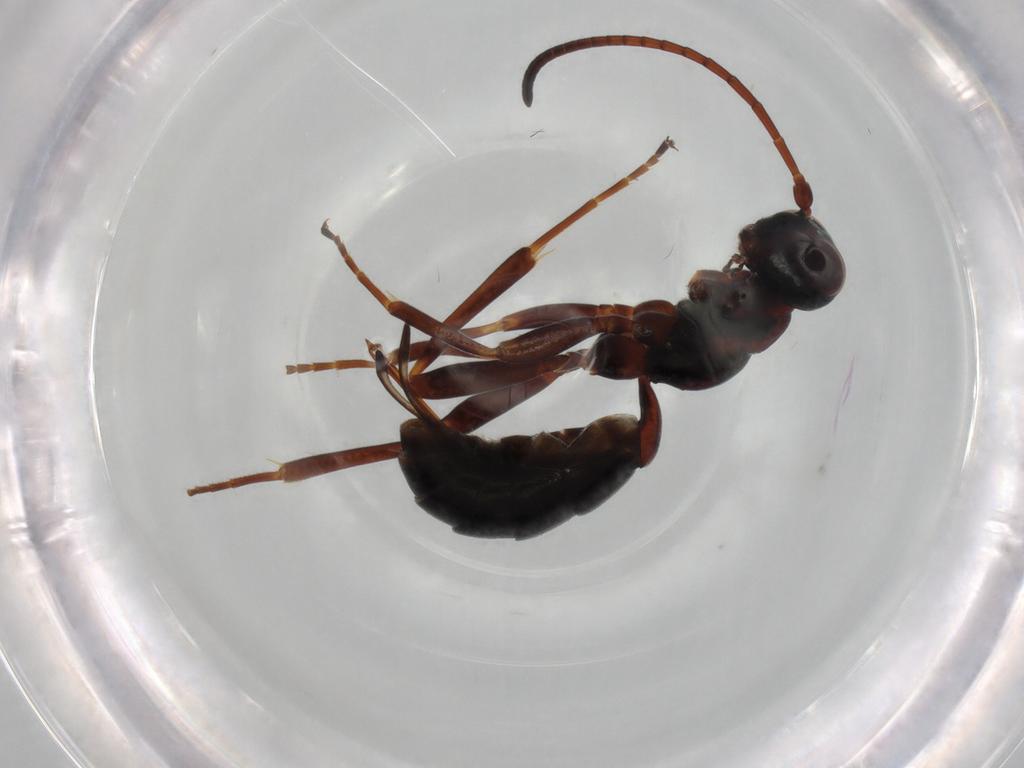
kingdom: Animalia
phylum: Arthropoda
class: Insecta
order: Hymenoptera
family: Ichneumonidae
